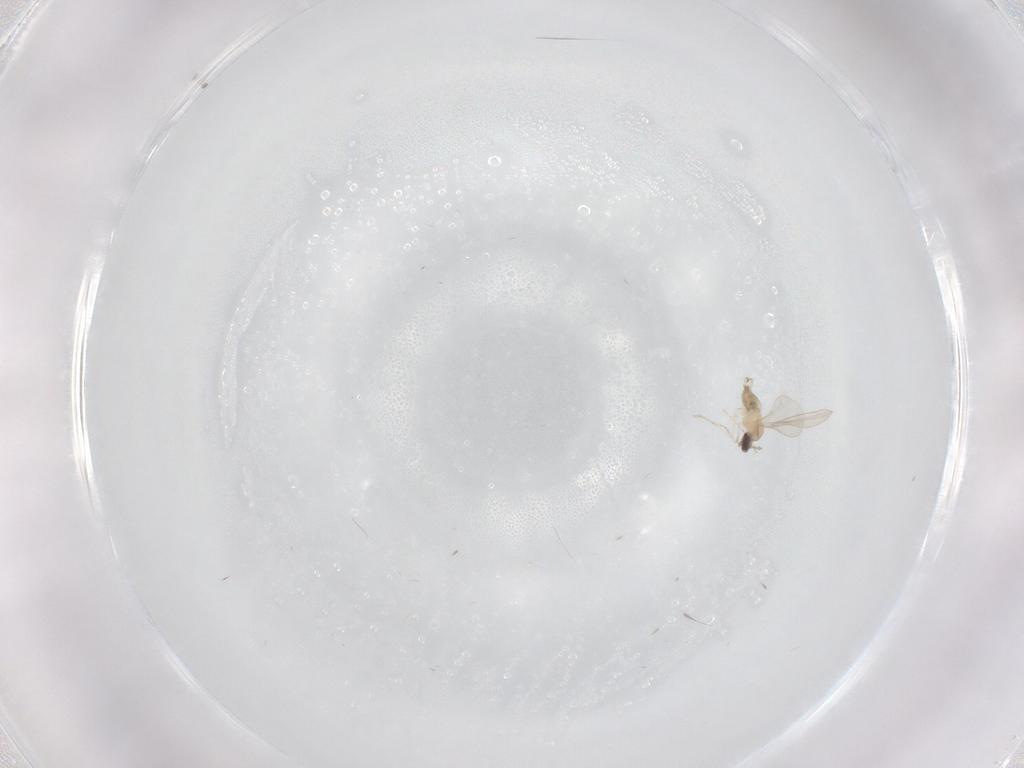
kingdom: Animalia
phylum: Arthropoda
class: Insecta
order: Diptera
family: Cecidomyiidae
